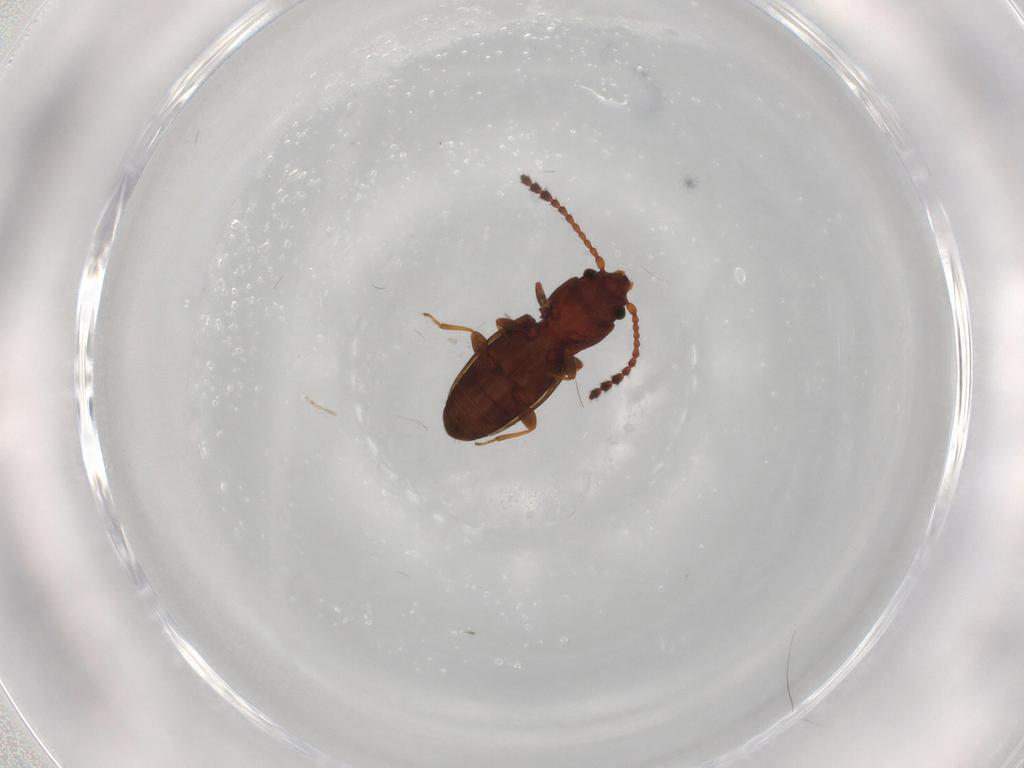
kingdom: Animalia
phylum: Arthropoda
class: Insecta
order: Coleoptera
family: Laemophloeidae
